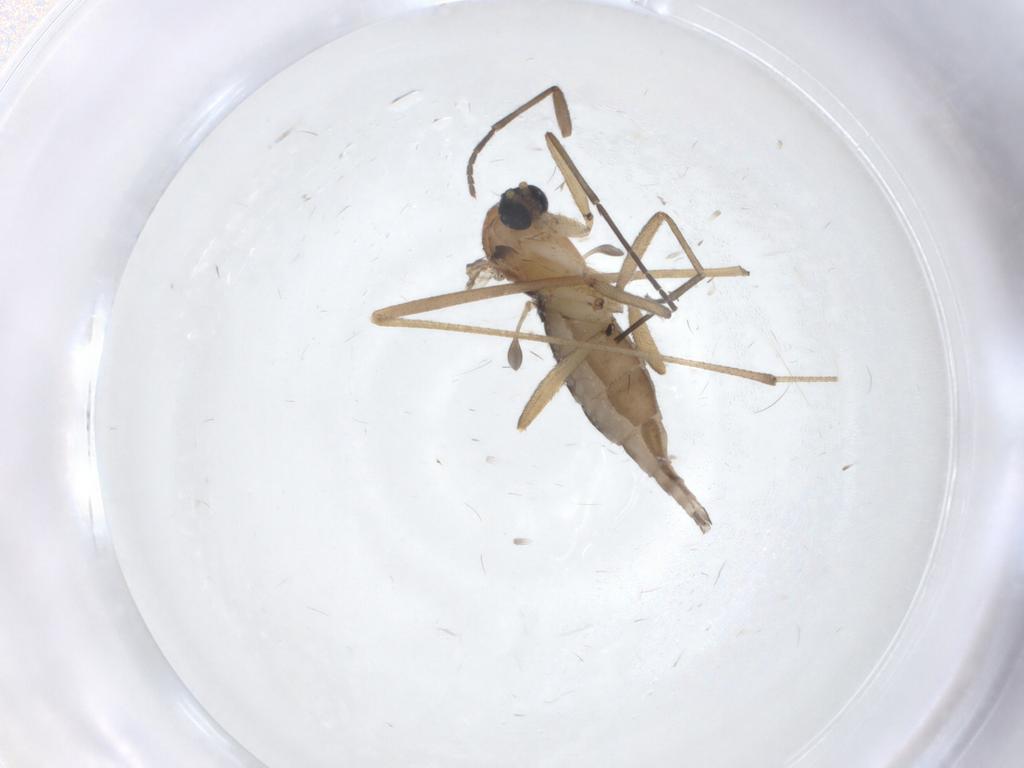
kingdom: Animalia
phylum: Arthropoda
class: Insecta
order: Diptera
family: Sciaridae
